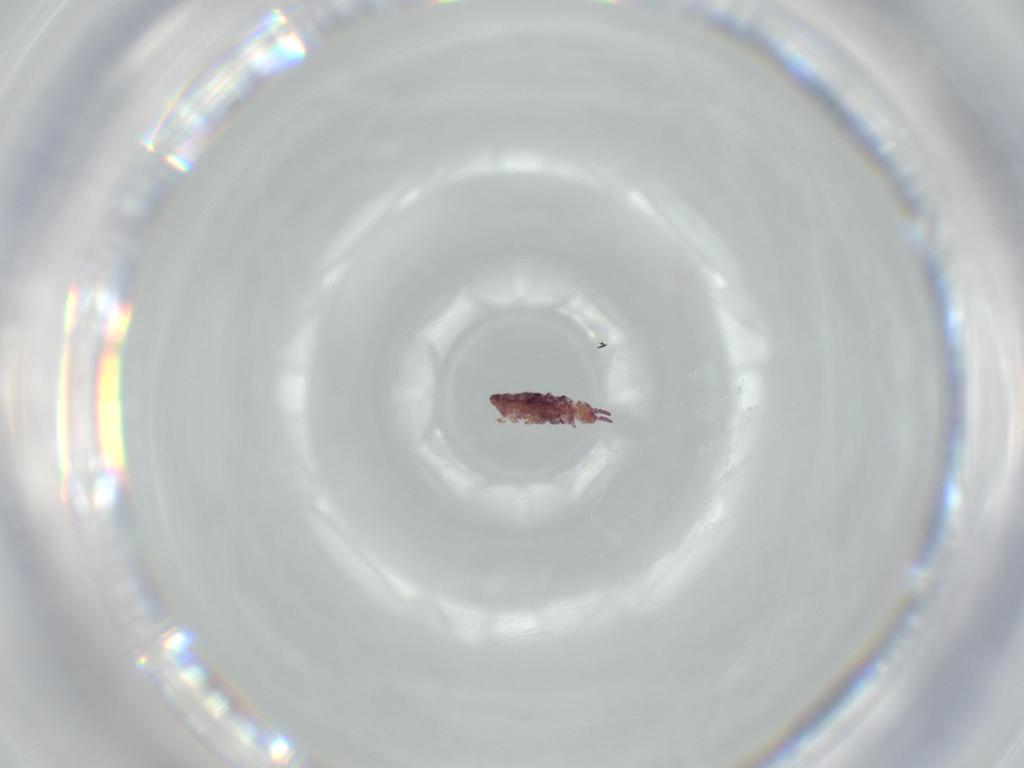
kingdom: Animalia
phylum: Arthropoda
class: Collembola
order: Poduromorpha
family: Brachystomellidae
